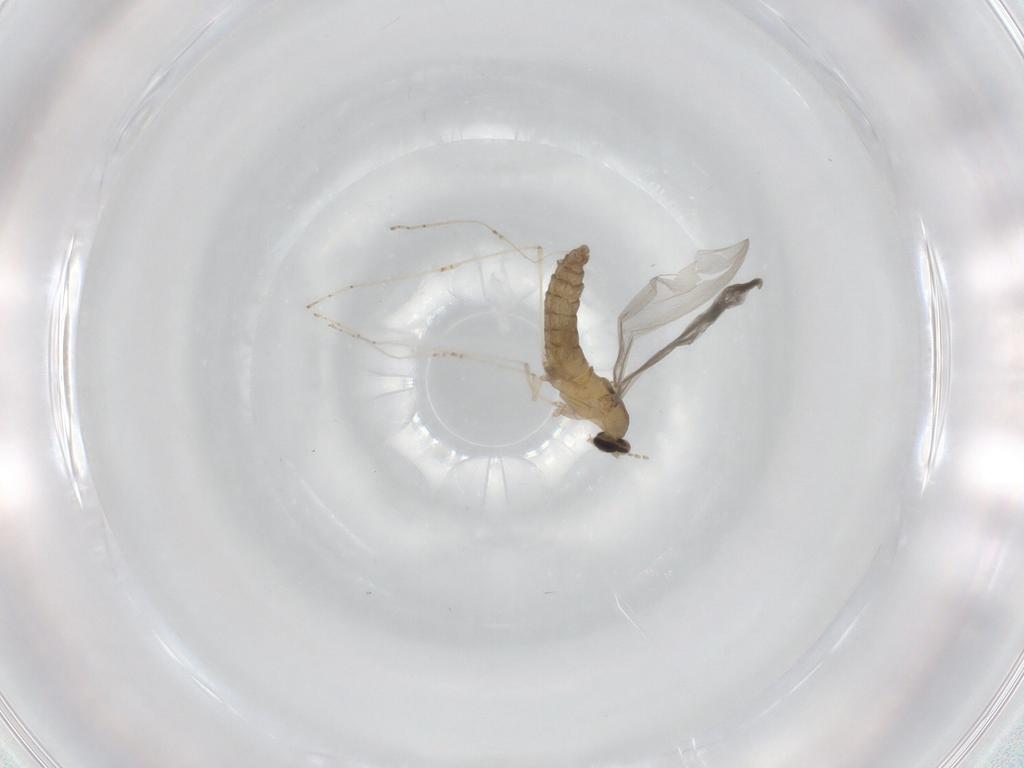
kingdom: Animalia
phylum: Arthropoda
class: Insecta
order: Diptera
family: Cecidomyiidae
